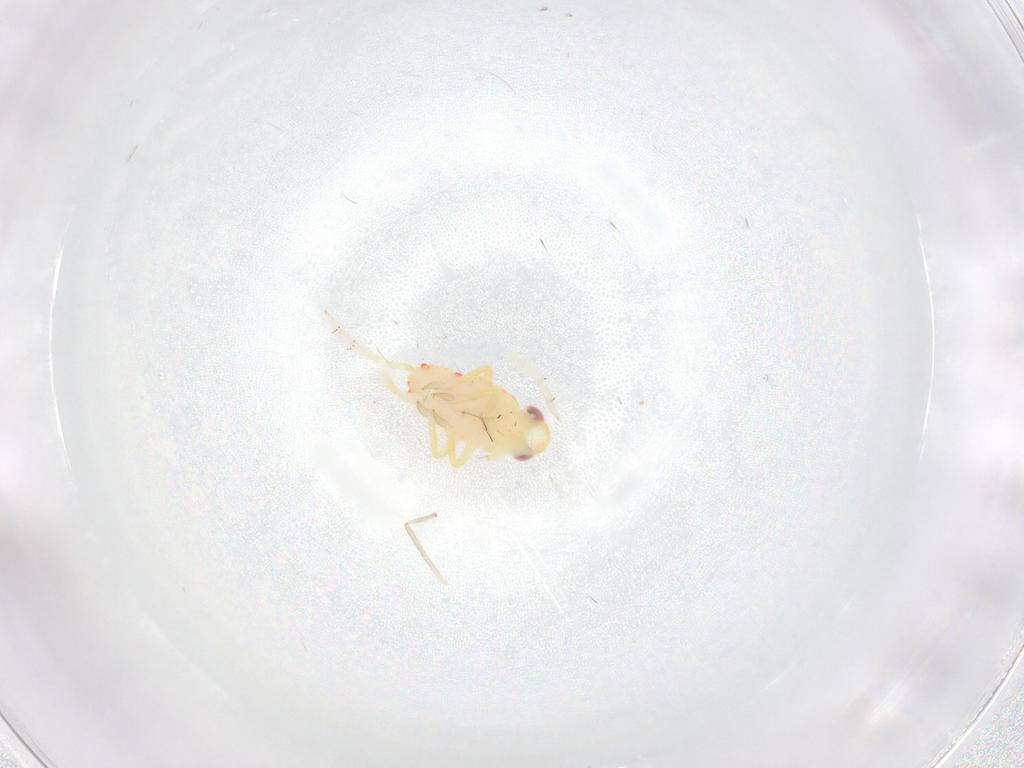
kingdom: Animalia
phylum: Arthropoda
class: Insecta
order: Hemiptera
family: Tropiduchidae
